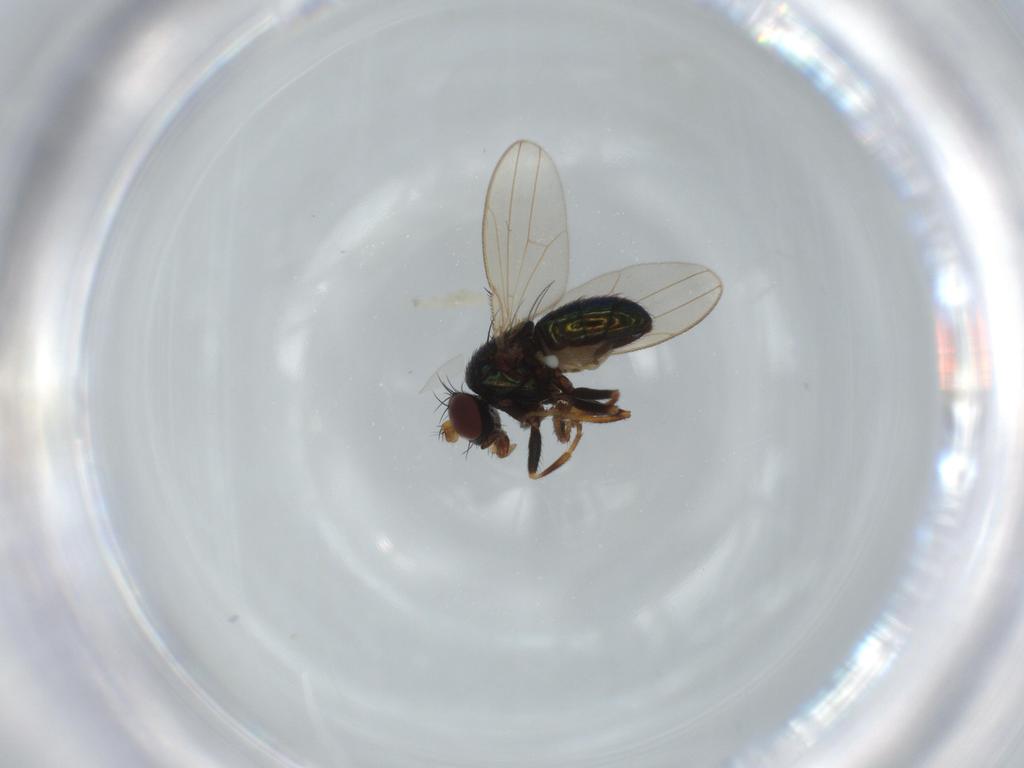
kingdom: Animalia
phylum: Arthropoda
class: Insecta
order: Diptera
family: Ephydridae
